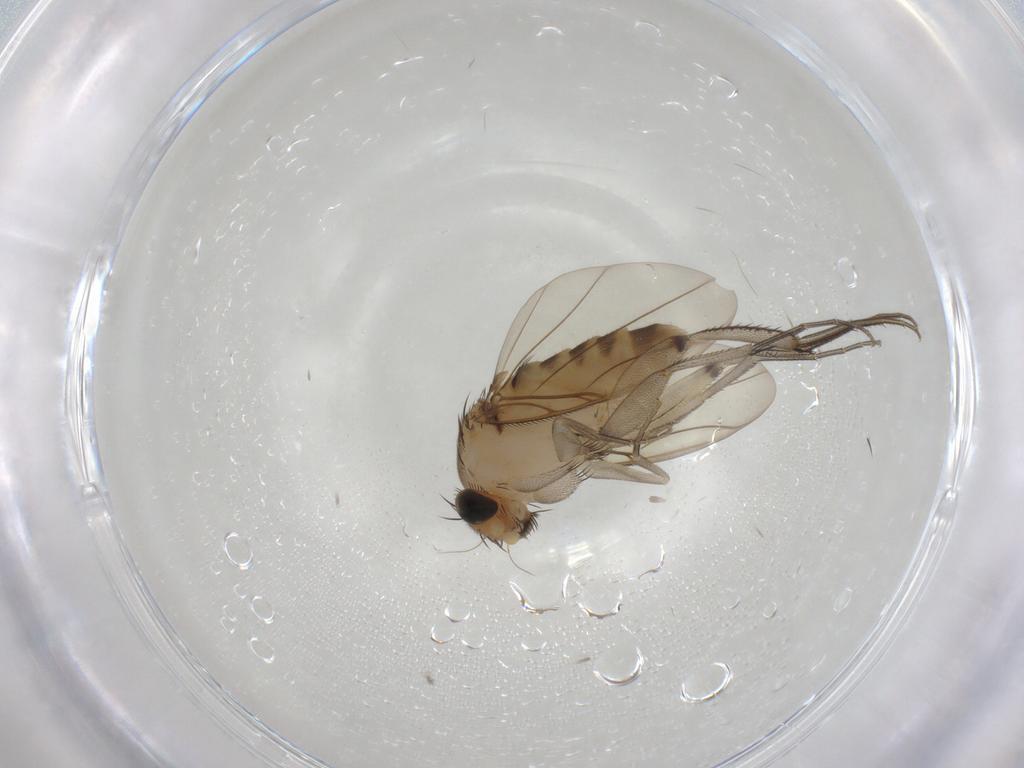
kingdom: Animalia
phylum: Arthropoda
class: Insecta
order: Diptera
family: Phoridae
